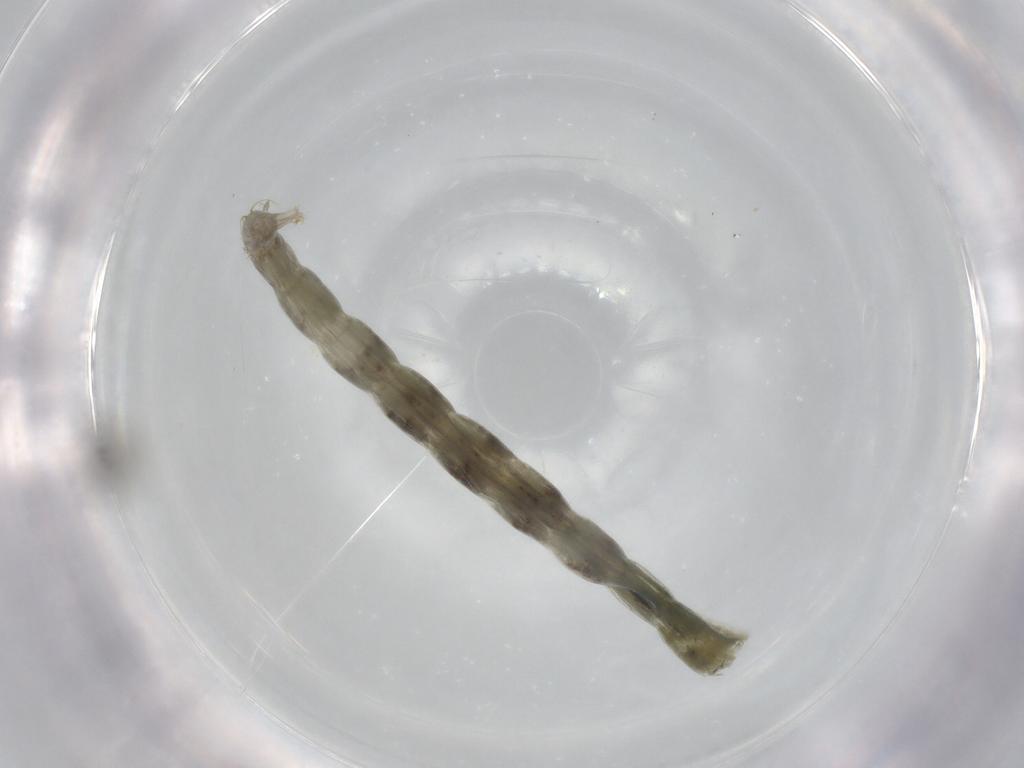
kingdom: Animalia
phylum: Arthropoda
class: Insecta
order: Diptera
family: Chironomidae
